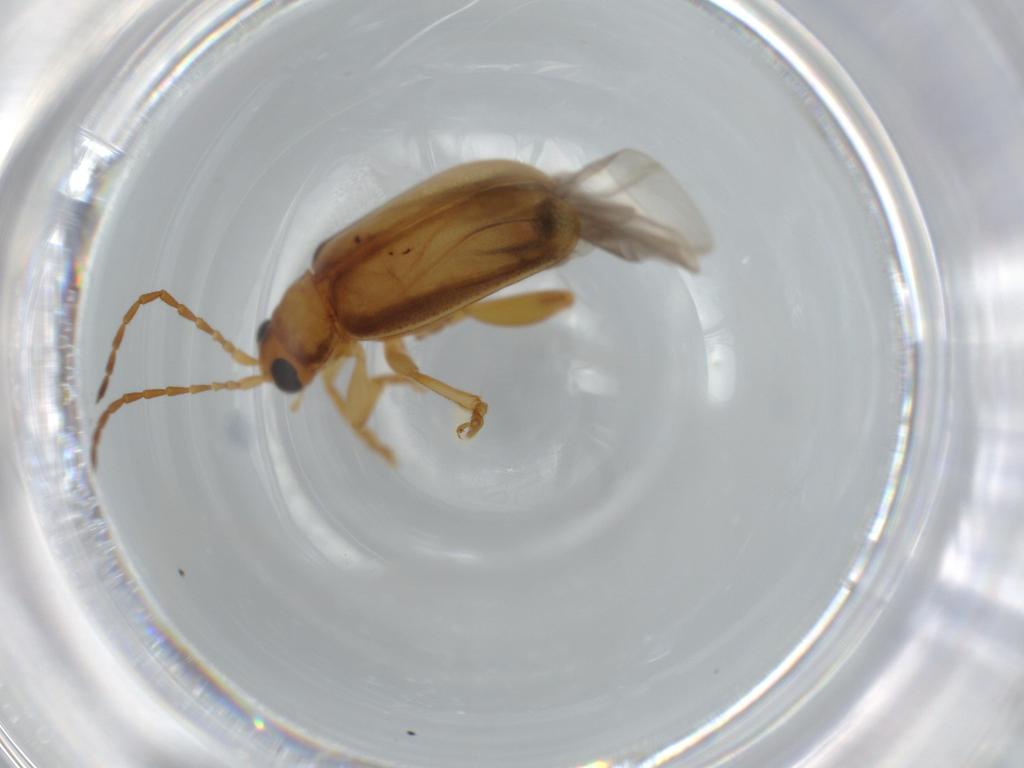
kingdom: Animalia
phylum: Arthropoda
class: Insecta
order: Coleoptera
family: Chrysomelidae
